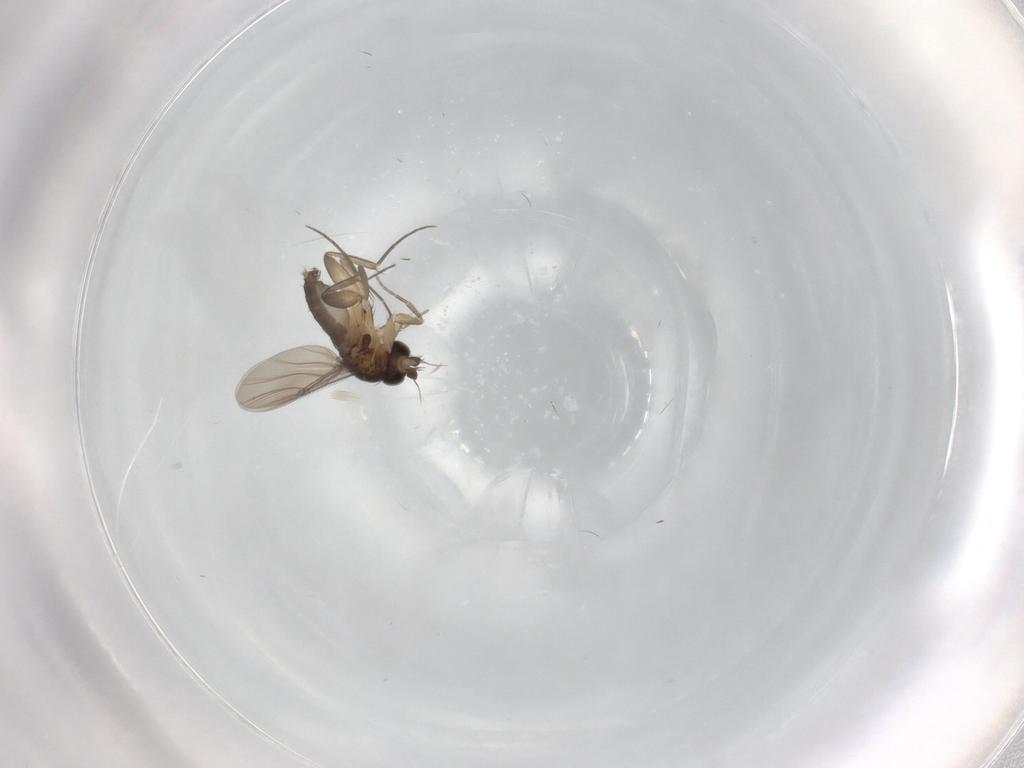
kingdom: Animalia
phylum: Arthropoda
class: Insecta
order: Diptera
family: Phoridae
